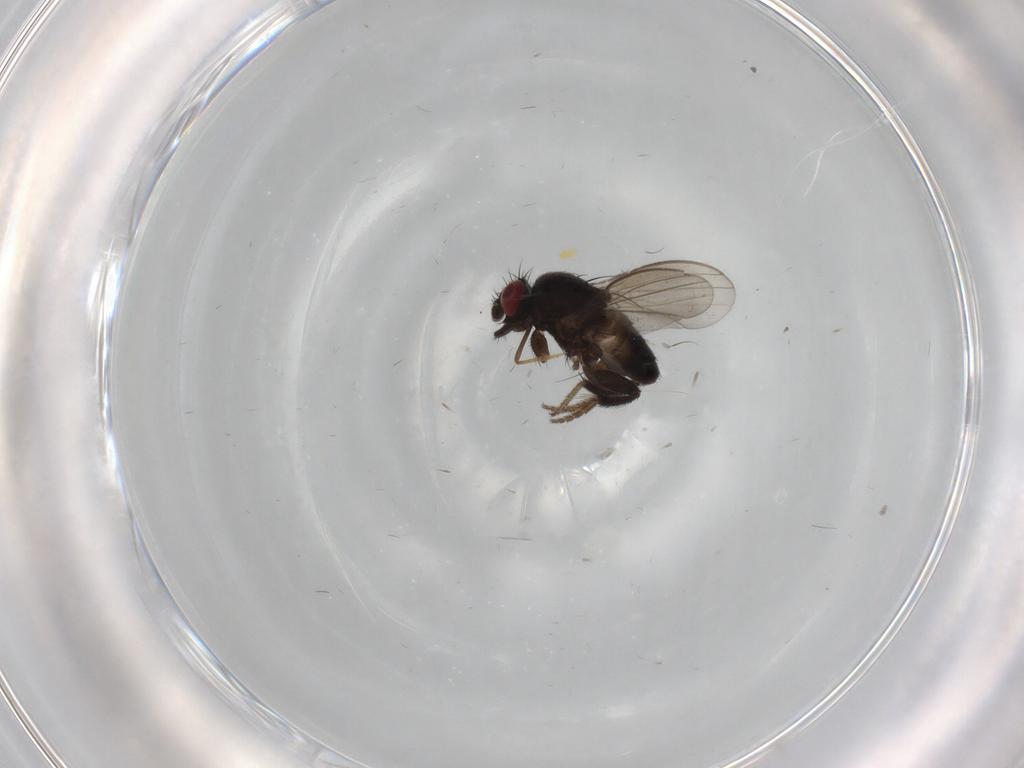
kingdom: Animalia
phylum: Arthropoda
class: Insecta
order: Diptera
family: Milichiidae
